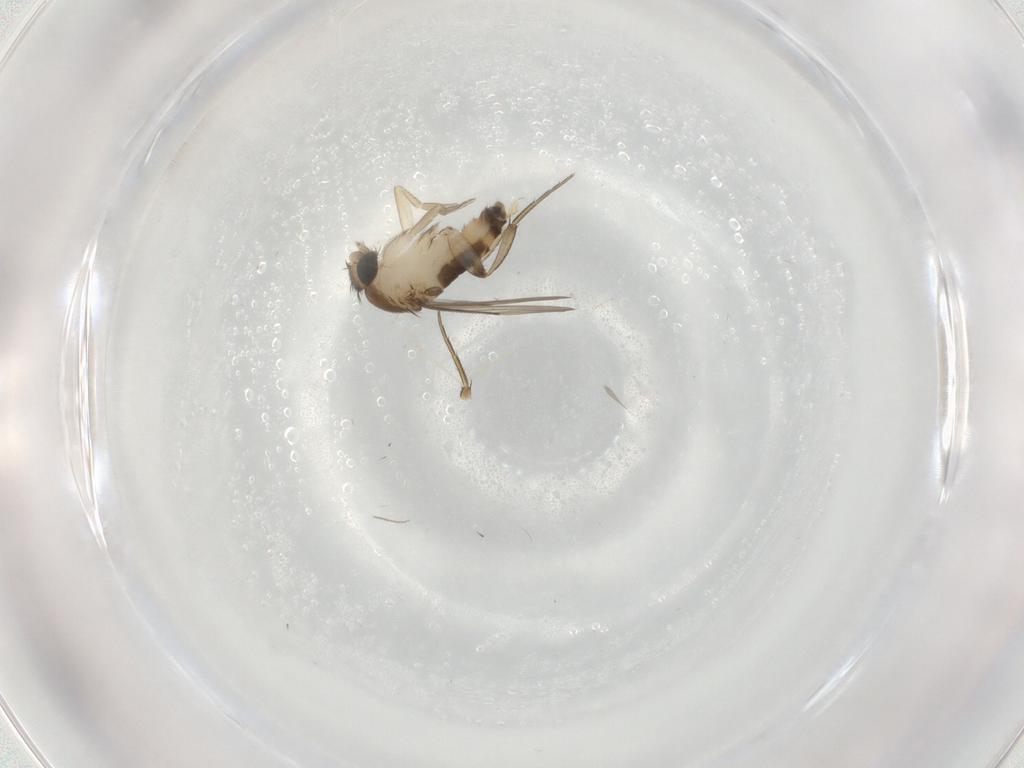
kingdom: Animalia
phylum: Arthropoda
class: Insecta
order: Diptera
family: Phoridae
